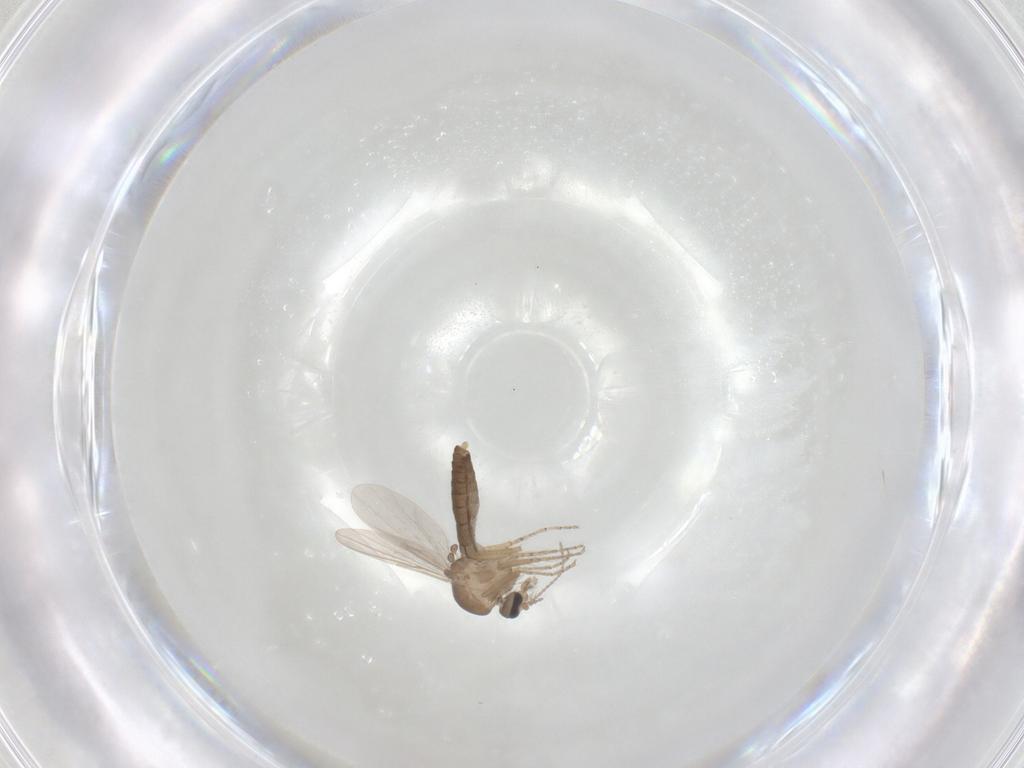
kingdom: Animalia
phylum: Arthropoda
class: Insecta
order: Diptera
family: Ceratopogonidae
